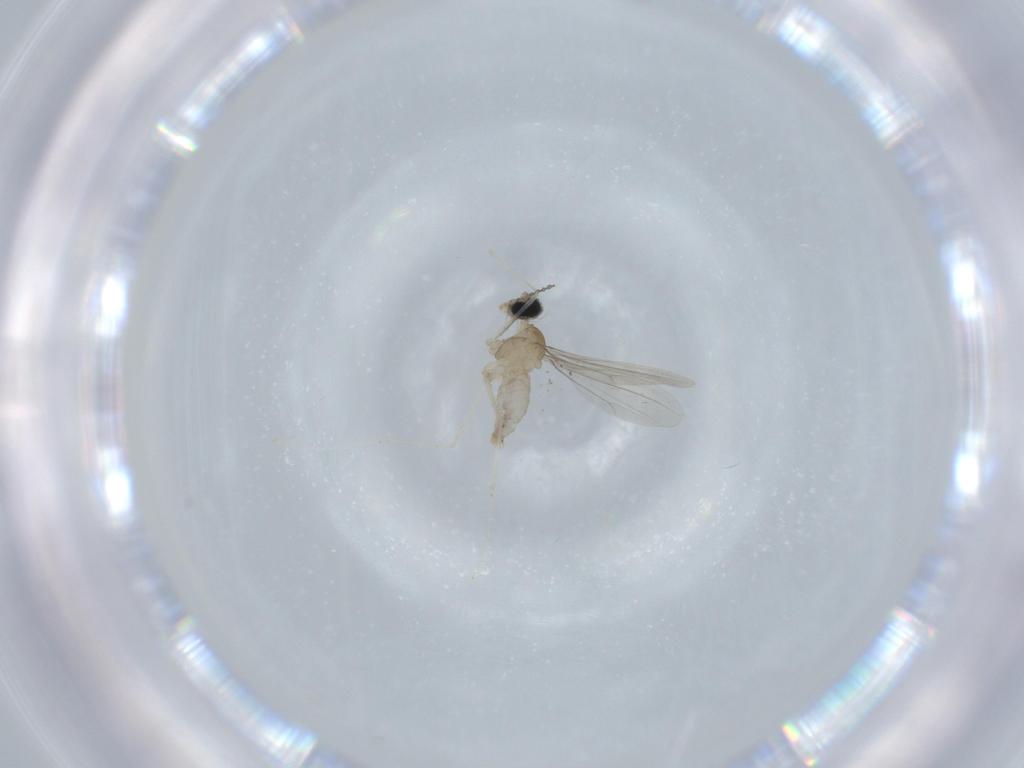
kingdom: Animalia
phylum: Arthropoda
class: Insecta
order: Diptera
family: Cecidomyiidae
